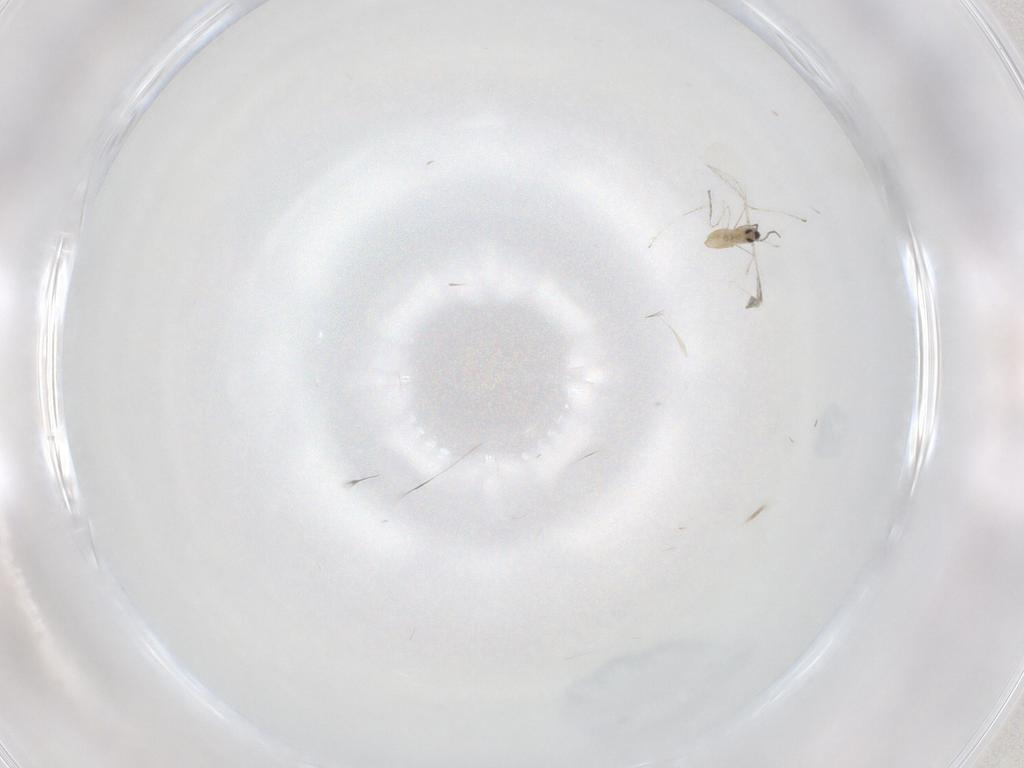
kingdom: Animalia
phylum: Arthropoda
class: Insecta
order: Diptera
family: Cecidomyiidae
